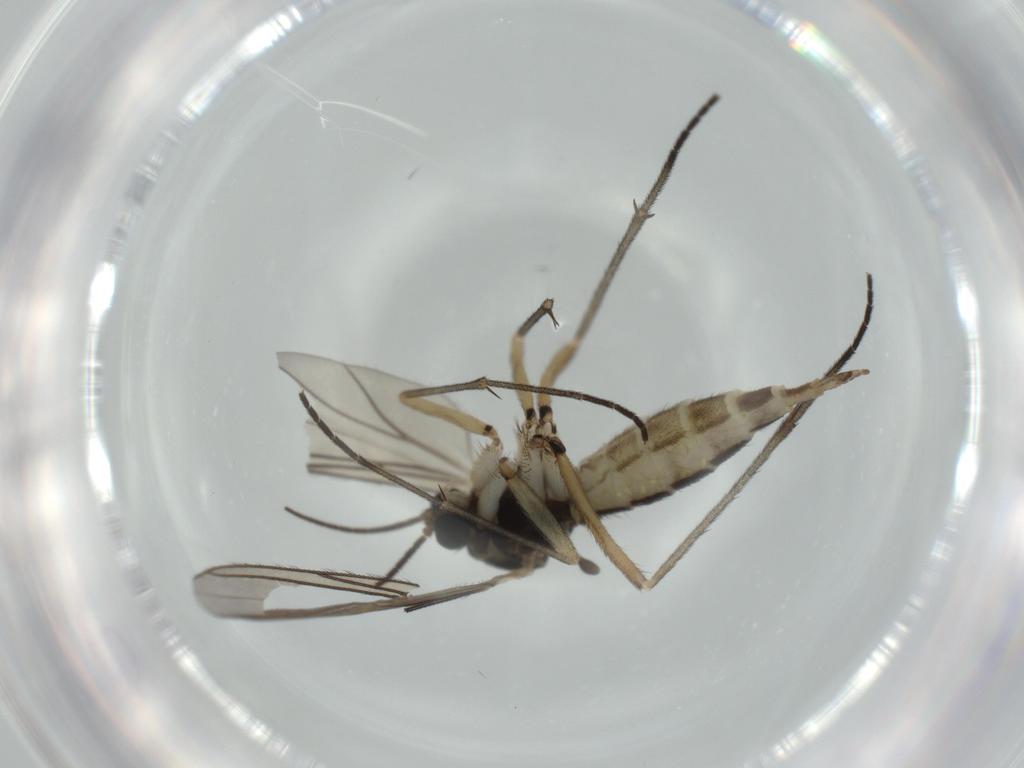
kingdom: Animalia
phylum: Arthropoda
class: Insecta
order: Diptera
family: Sciaridae
